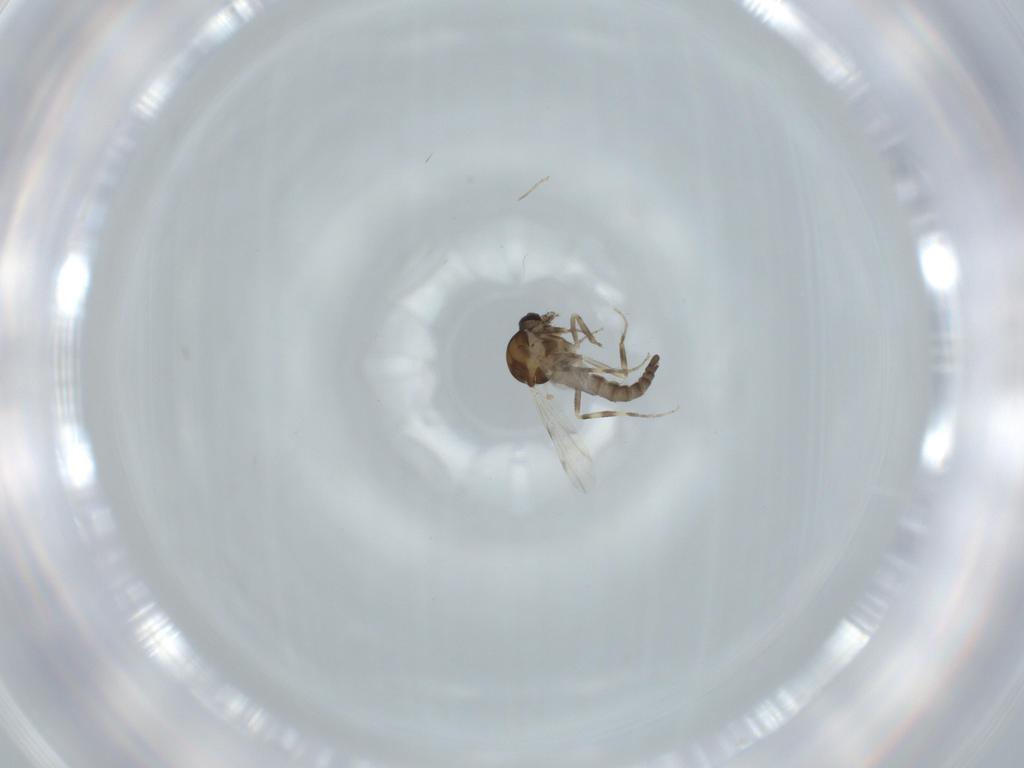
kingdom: Animalia
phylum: Arthropoda
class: Insecta
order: Diptera
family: Ceratopogonidae
